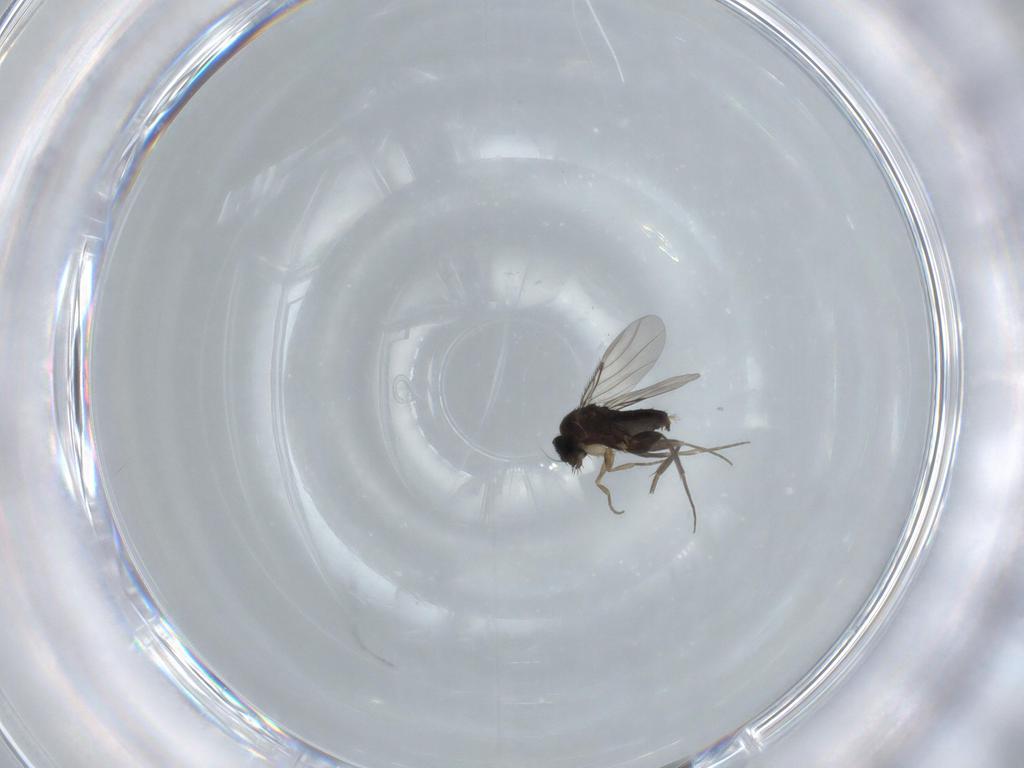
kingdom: Animalia
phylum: Arthropoda
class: Insecta
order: Diptera
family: Phoridae
